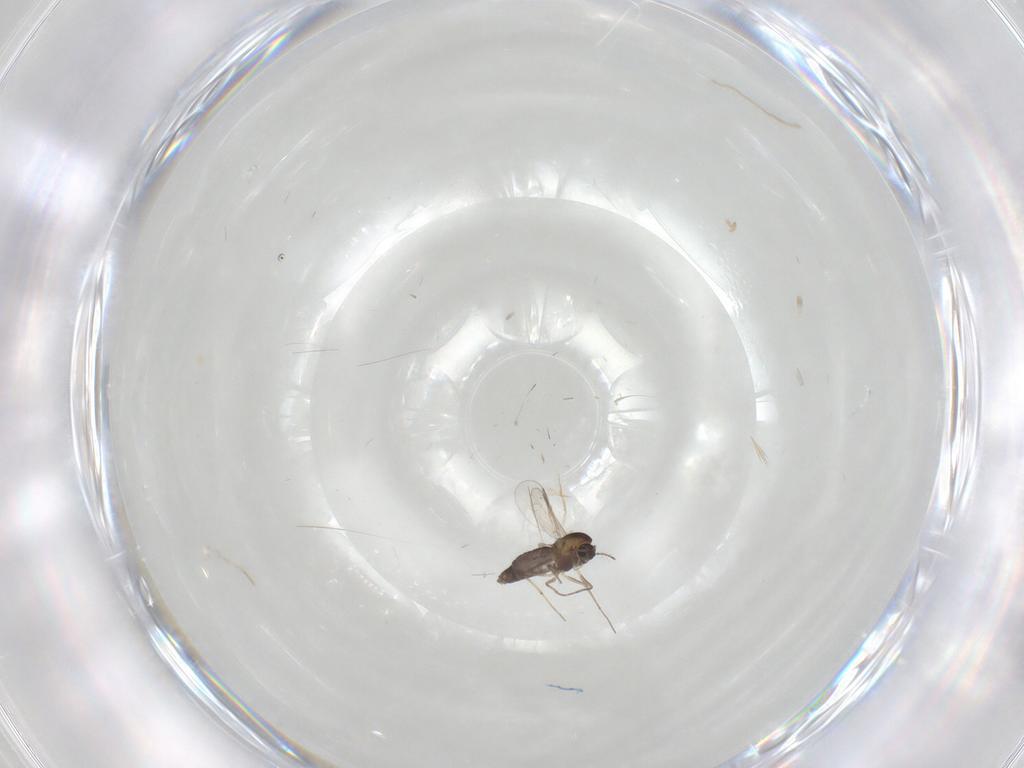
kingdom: Animalia
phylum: Arthropoda
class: Insecta
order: Diptera
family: Chironomidae
